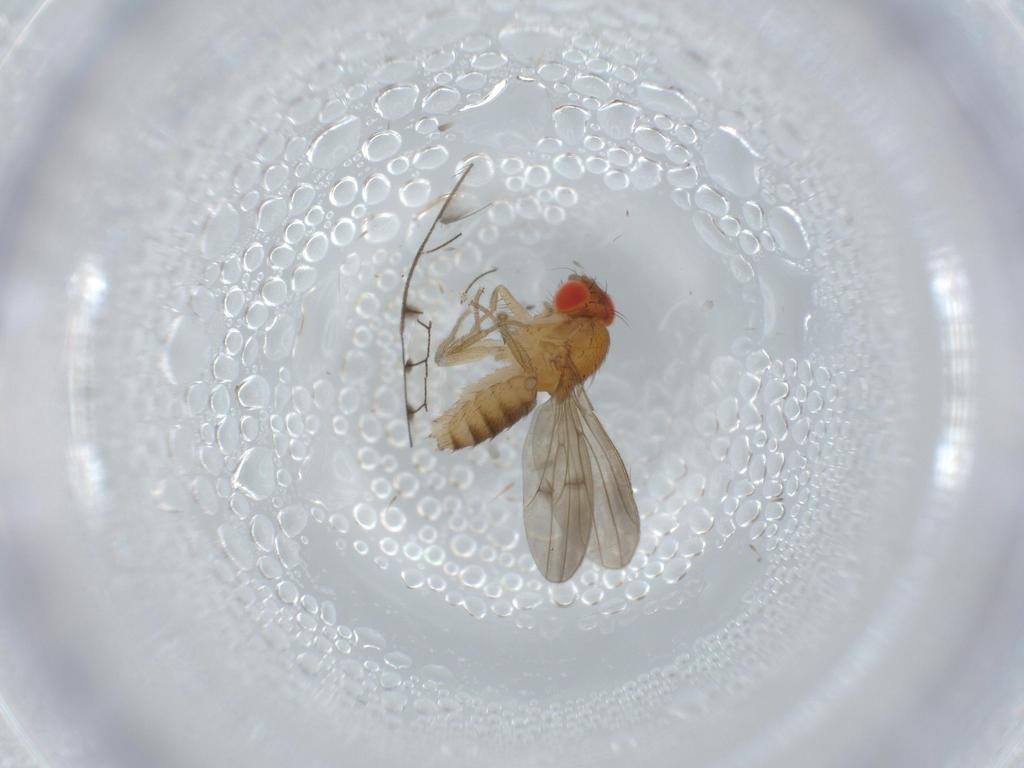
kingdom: Animalia
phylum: Arthropoda
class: Insecta
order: Diptera
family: Drosophilidae
